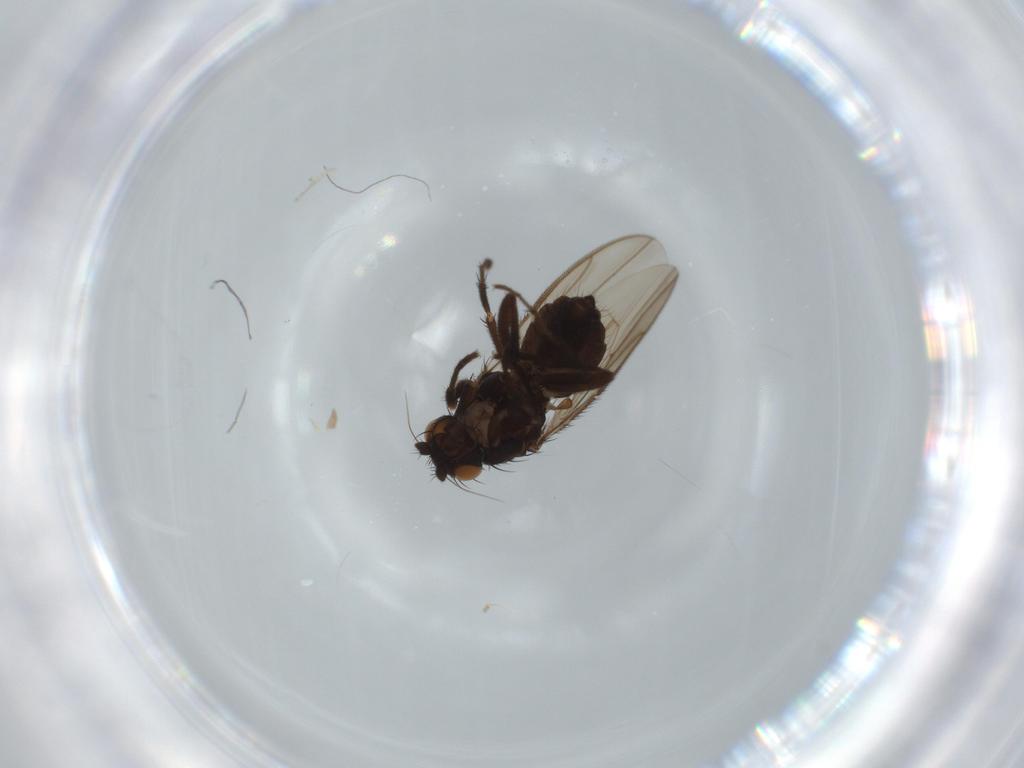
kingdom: Animalia
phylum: Arthropoda
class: Insecta
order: Diptera
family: Sphaeroceridae
